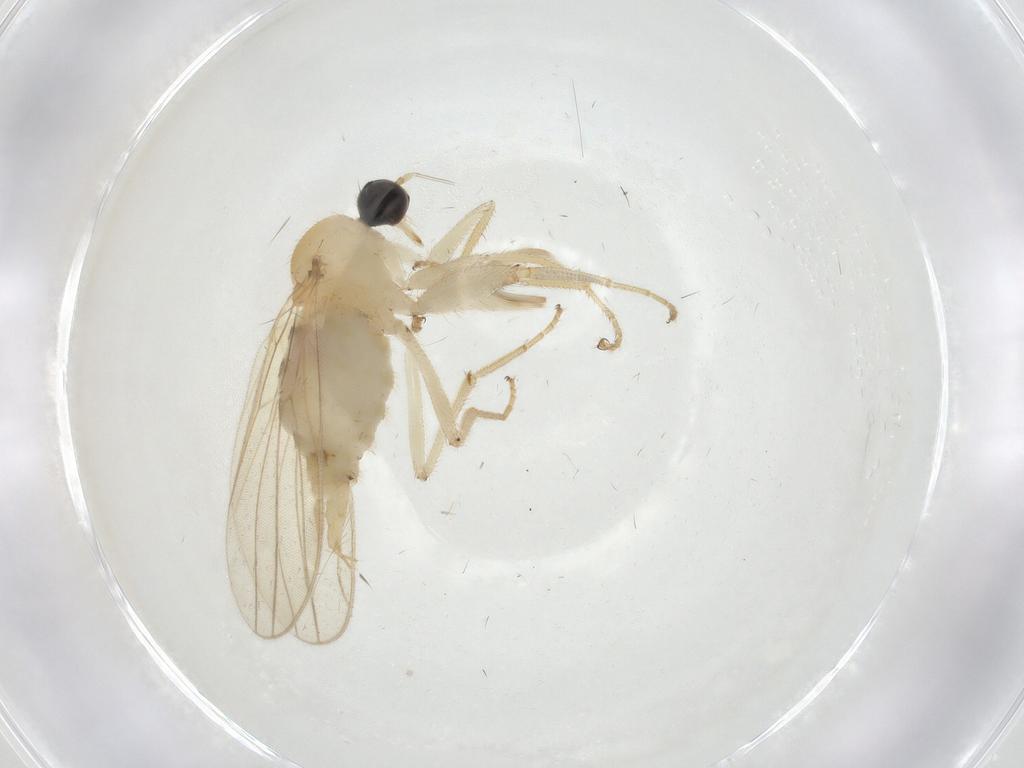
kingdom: Animalia
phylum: Arthropoda
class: Insecta
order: Diptera
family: Hybotidae
